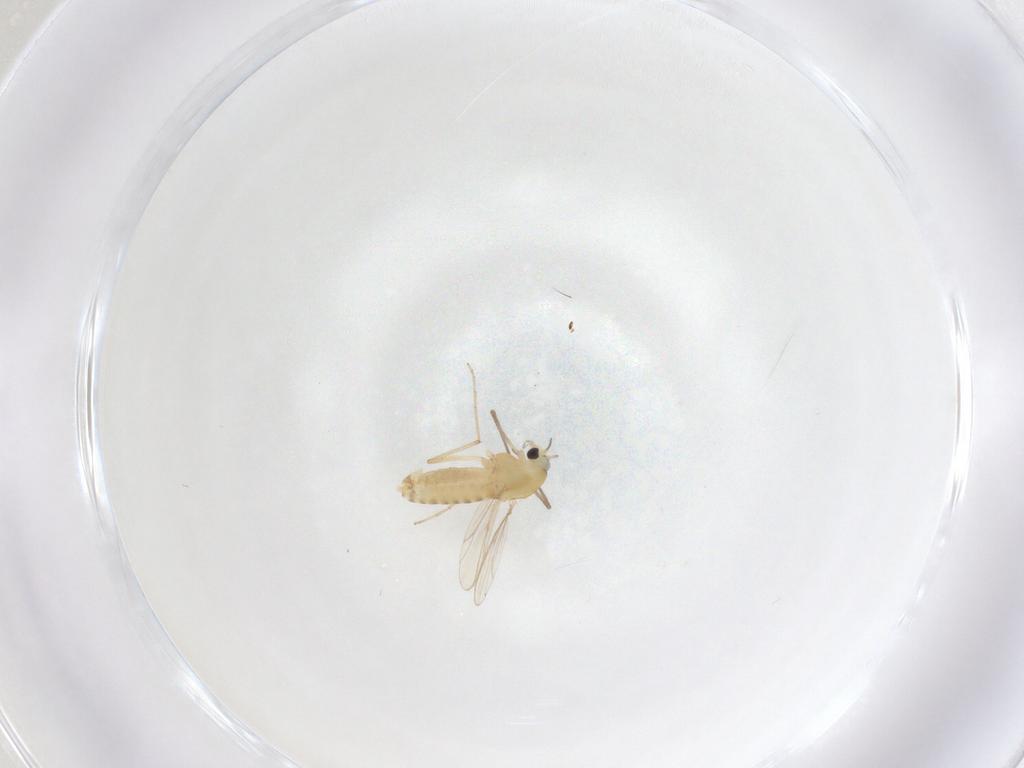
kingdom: Animalia
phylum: Arthropoda
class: Insecta
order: Diptera
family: Chironomidae
